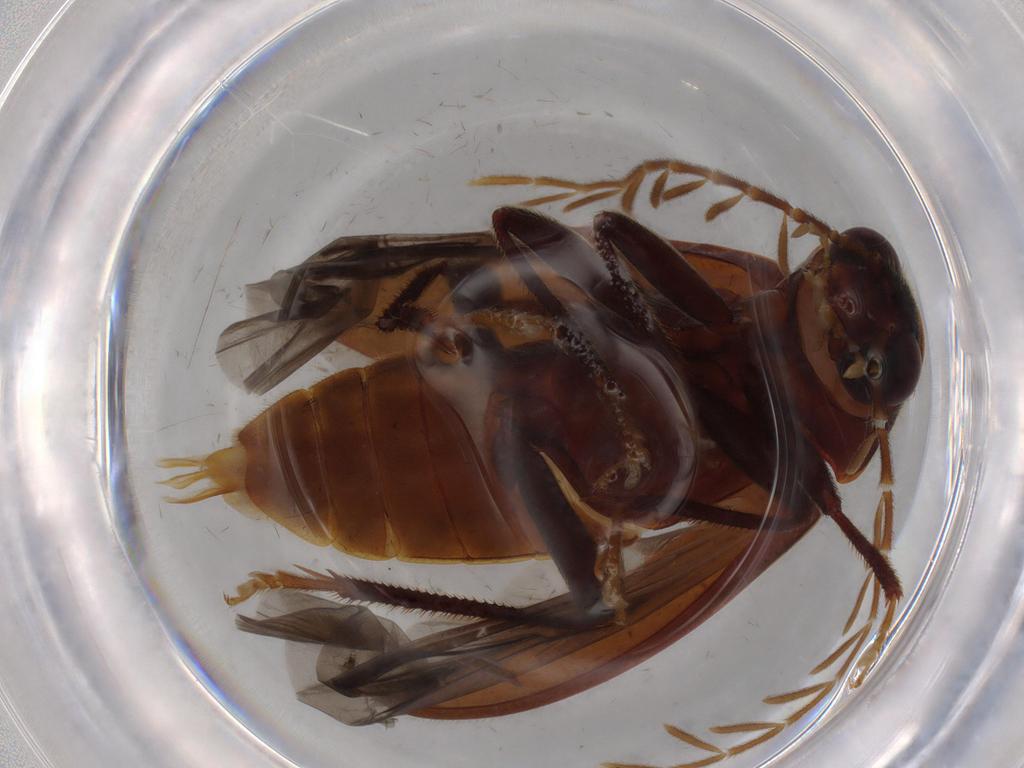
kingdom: Animalia
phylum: Arthropoda
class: Insecta
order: Coleoptera
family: Ptilodactylidae
